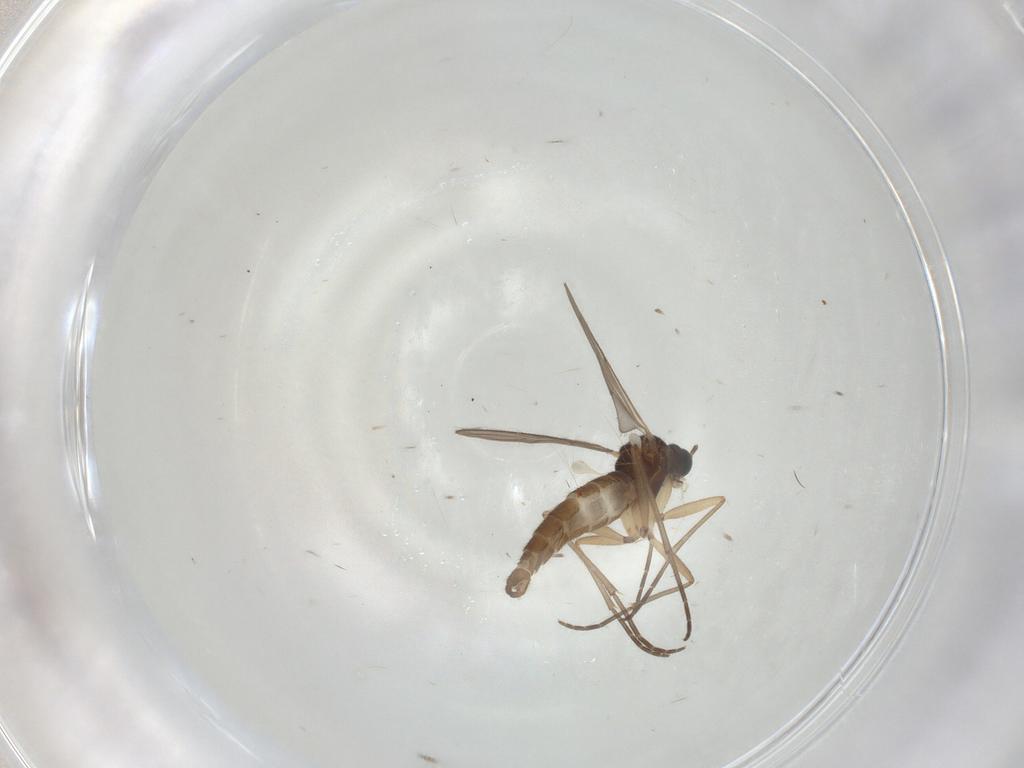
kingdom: Animalia
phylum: Arthropoda
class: Insecta
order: Diptera
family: Sciaridae
